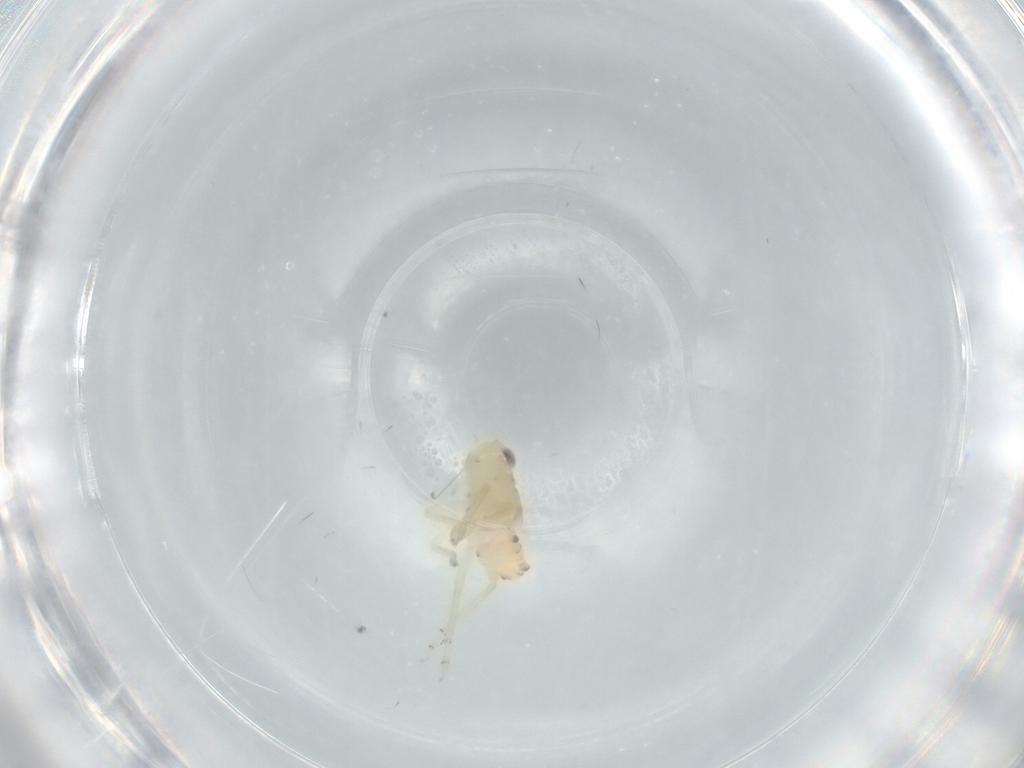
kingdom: Animalia
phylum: Arthropoda
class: Insecta
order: Hemiptera
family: Tropiduchidae
